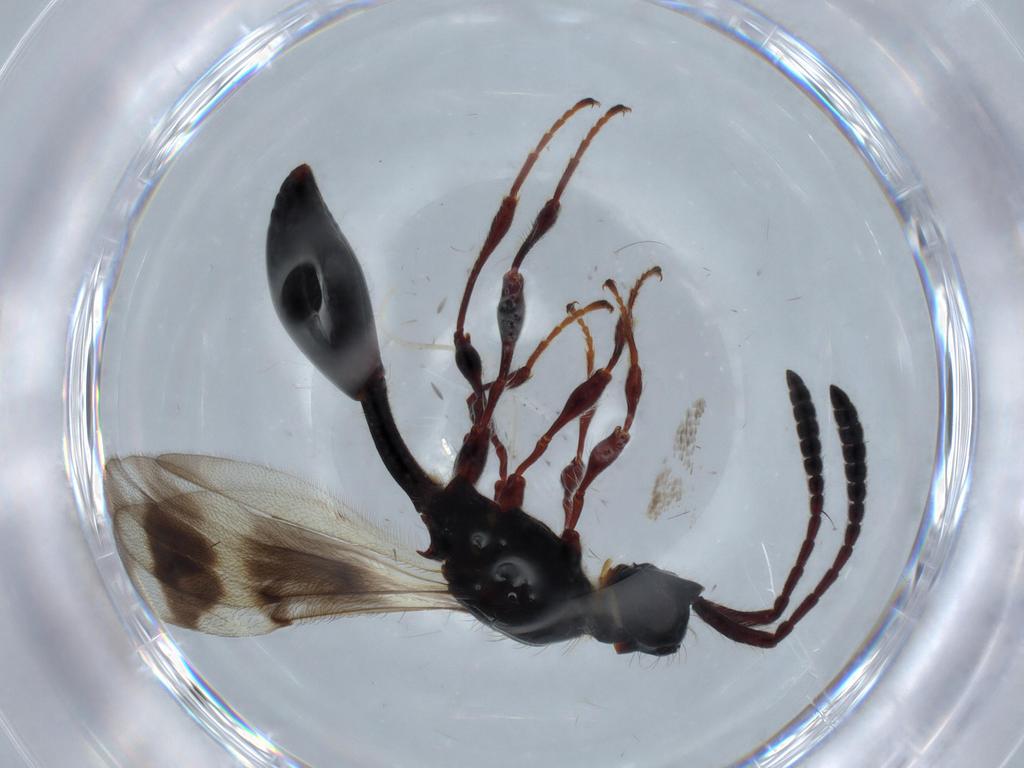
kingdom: Animalia
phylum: Arthropoda
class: Insecta
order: Hymenoptera
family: Diapriidae
